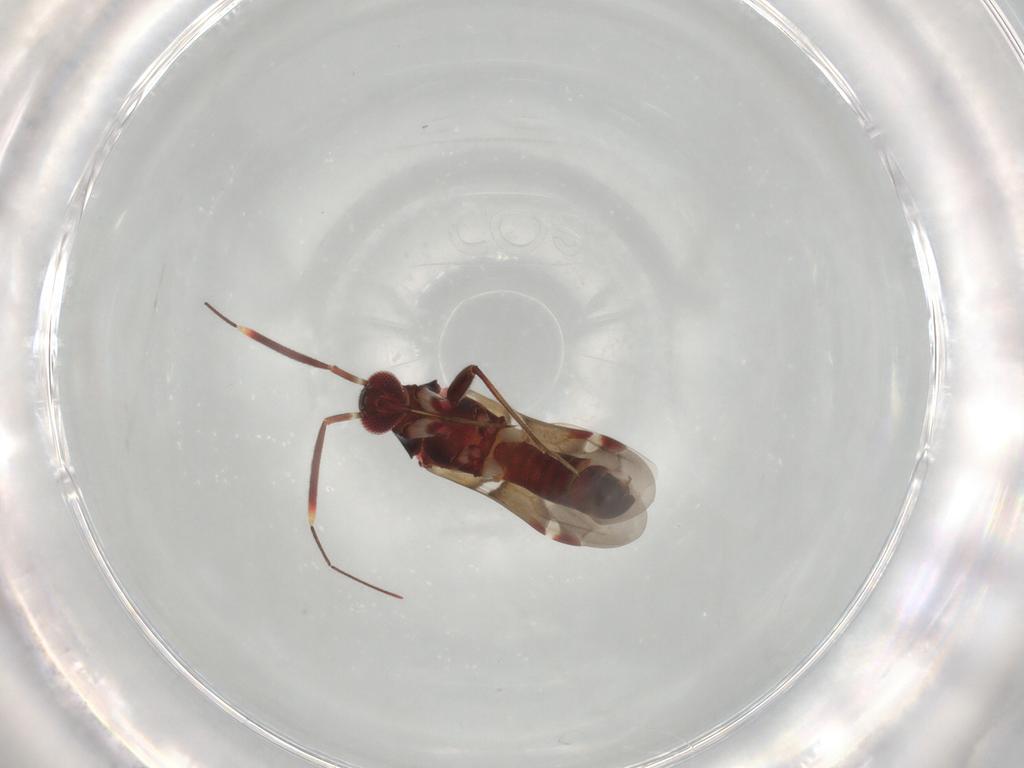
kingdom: Animalia
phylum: Arthropoda
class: Insecta
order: Hemiptera
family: Miridae
